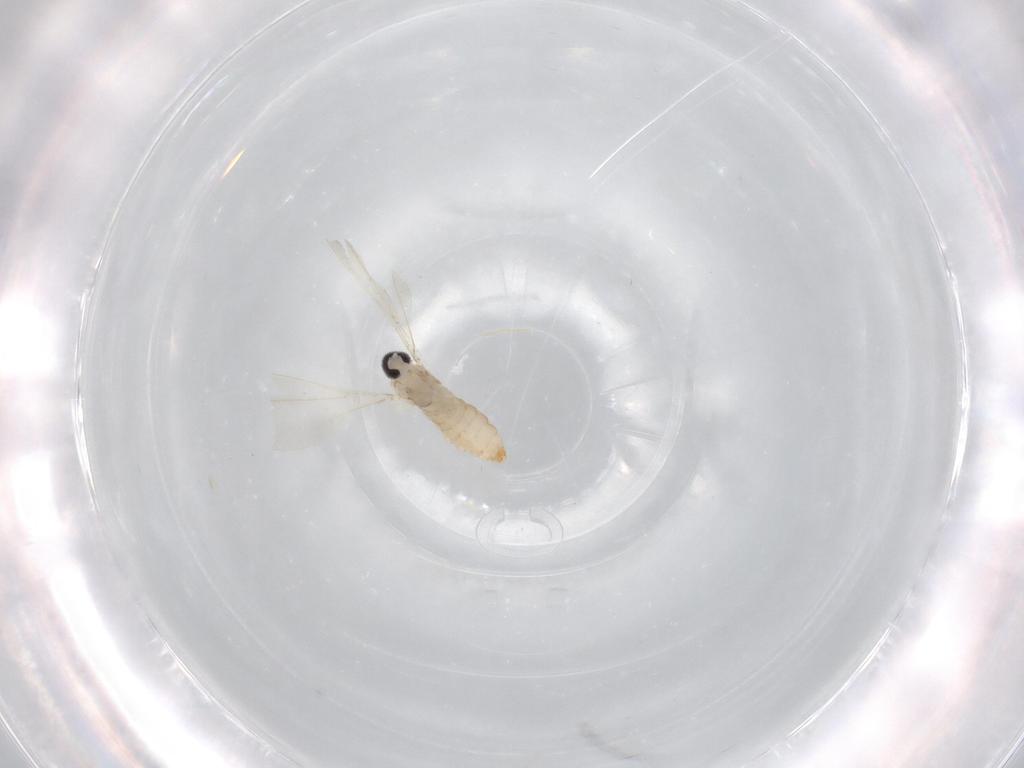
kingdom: Animalia
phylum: Arthropoda
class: Insecta
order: Diptera
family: Cecidomyiidae
